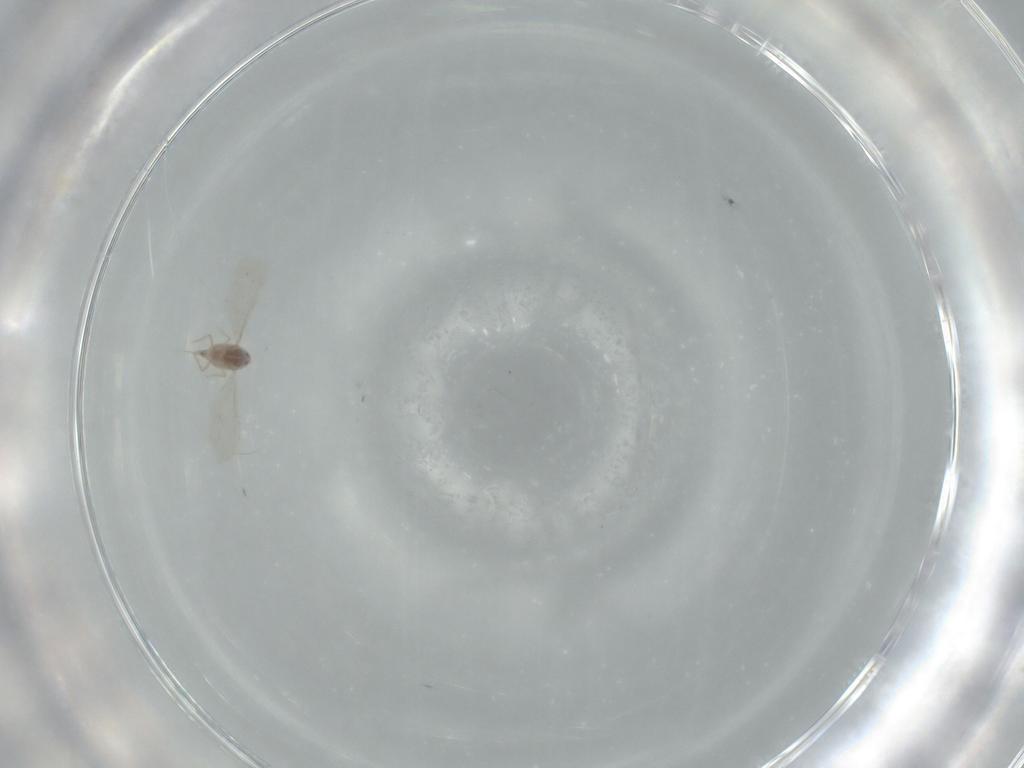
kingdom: Animalia
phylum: Arthropoda
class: Insecta
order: Hemiptera
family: Diaspididae
